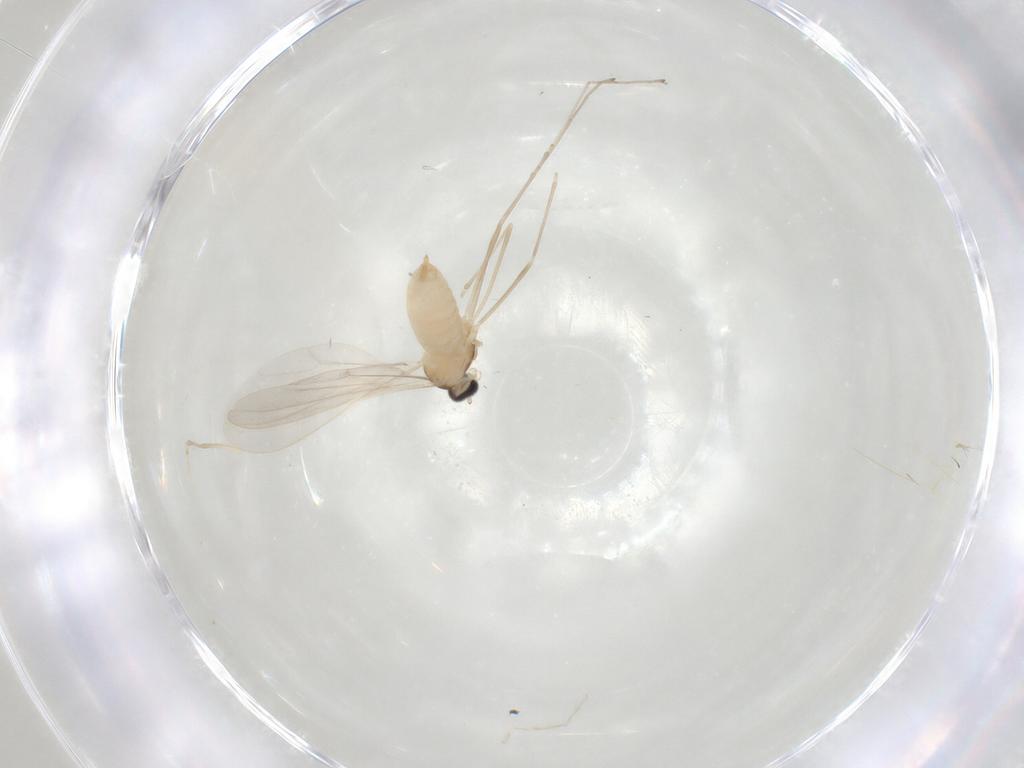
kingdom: Animalia
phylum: Arthropoda
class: Insecta
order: Diptera
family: Cecidomyiidae
